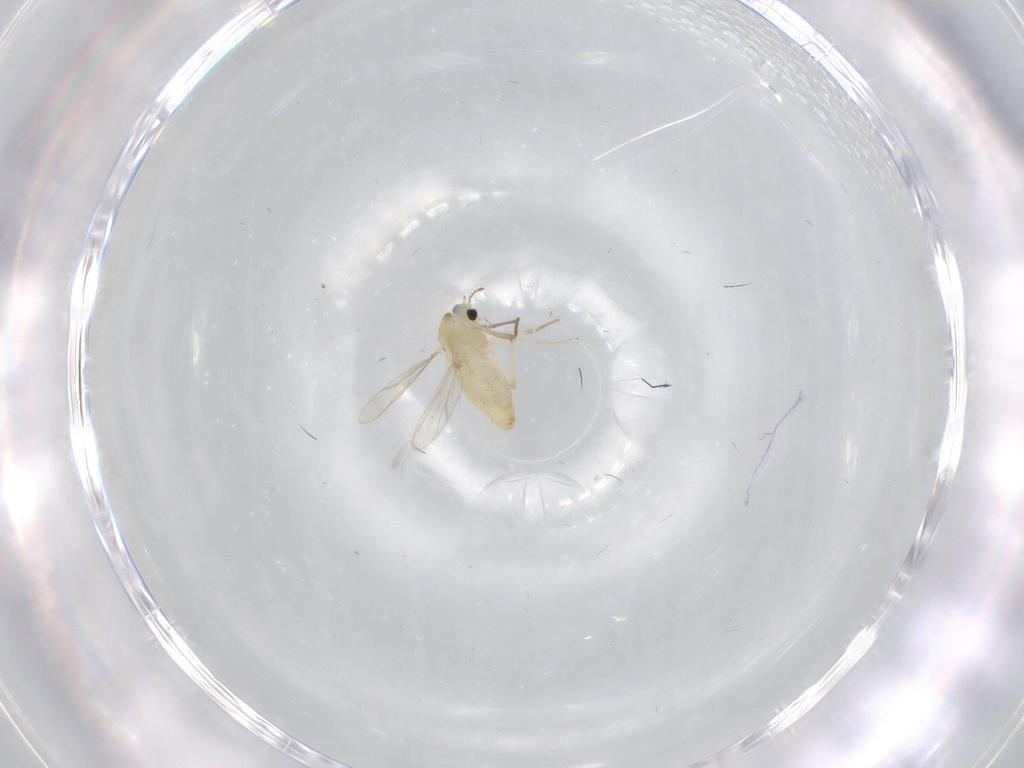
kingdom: Animalia
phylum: Arthropoda
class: Insecta
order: Diptera
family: Chironomidae
